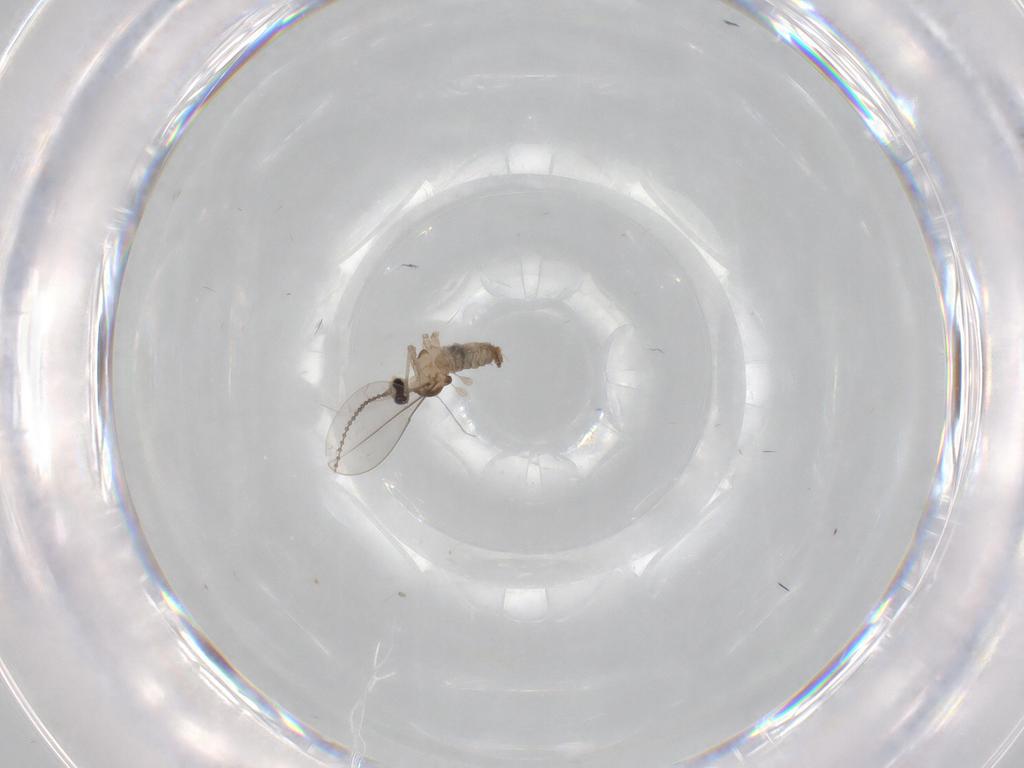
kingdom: Animalia
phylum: Arthropoda
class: Insecta
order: Diptera
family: Cecidomyiidae
